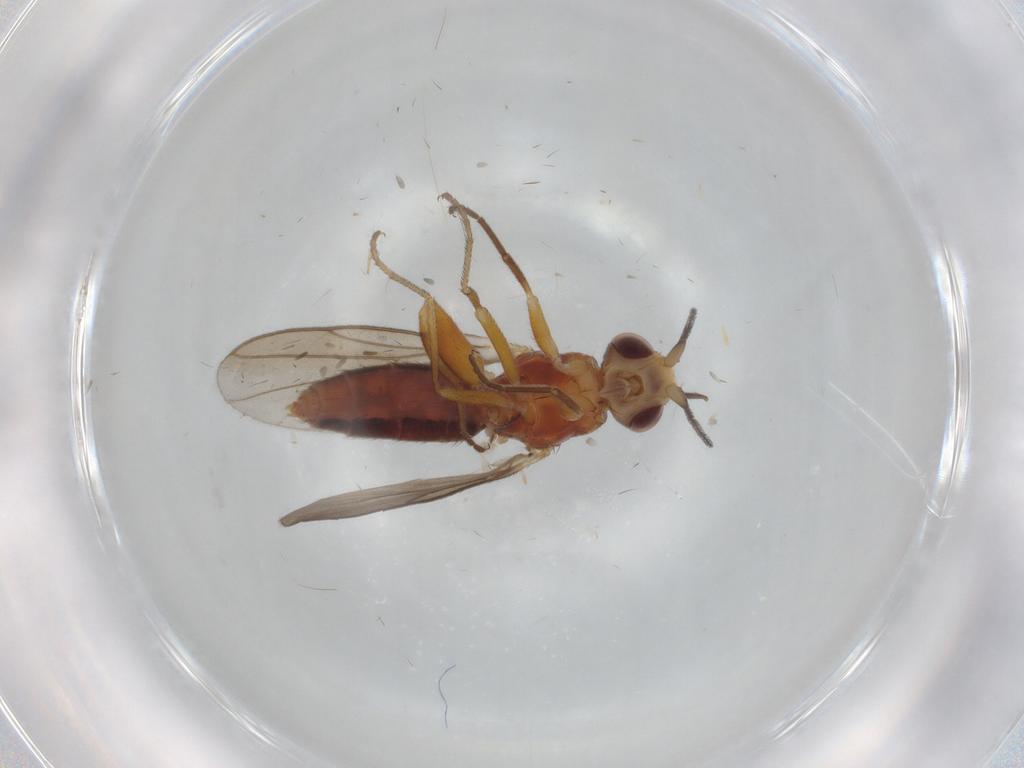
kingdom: Animalia
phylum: Arthropoda
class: Insecta
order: Diptera
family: Chloropidae
